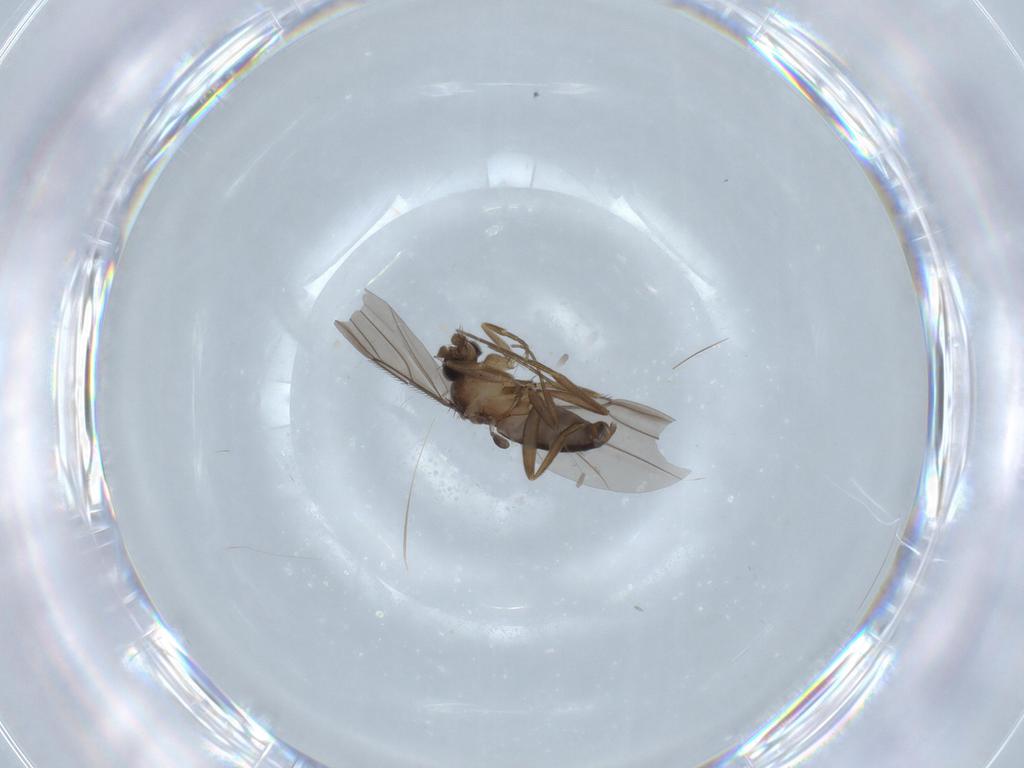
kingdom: Animalia
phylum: Arthropoda
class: Insecta
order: Diptera
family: Phoridae
